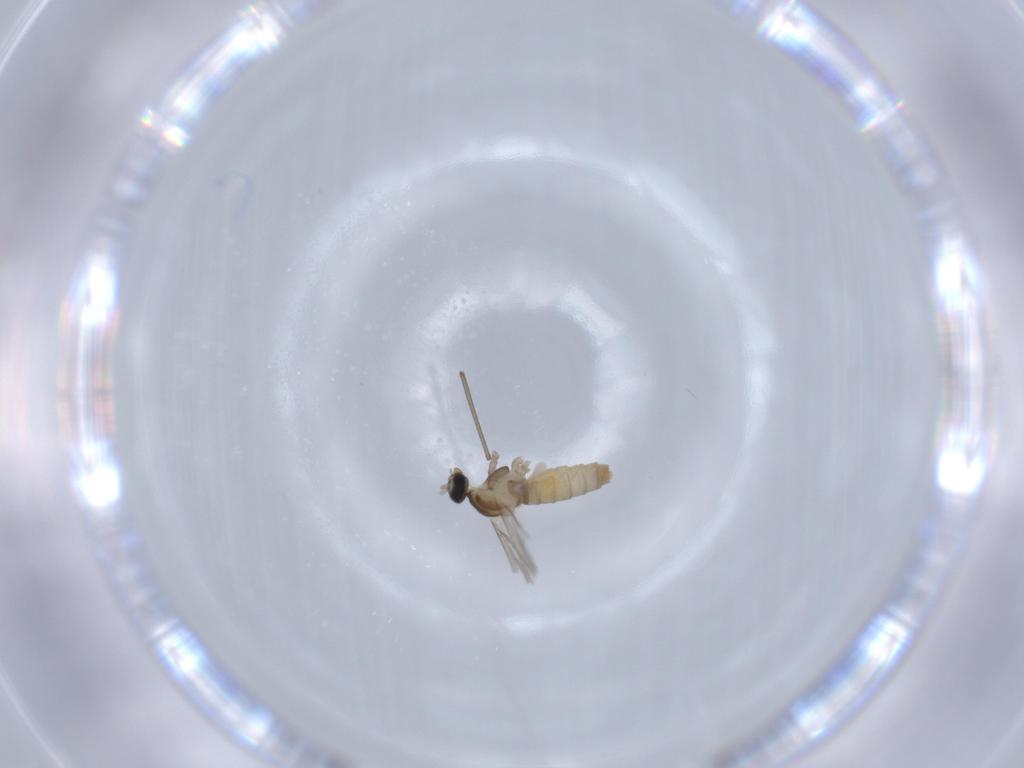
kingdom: Animalia
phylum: Arthropoda
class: Insecta
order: Diptera
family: Cecidomyiidae
